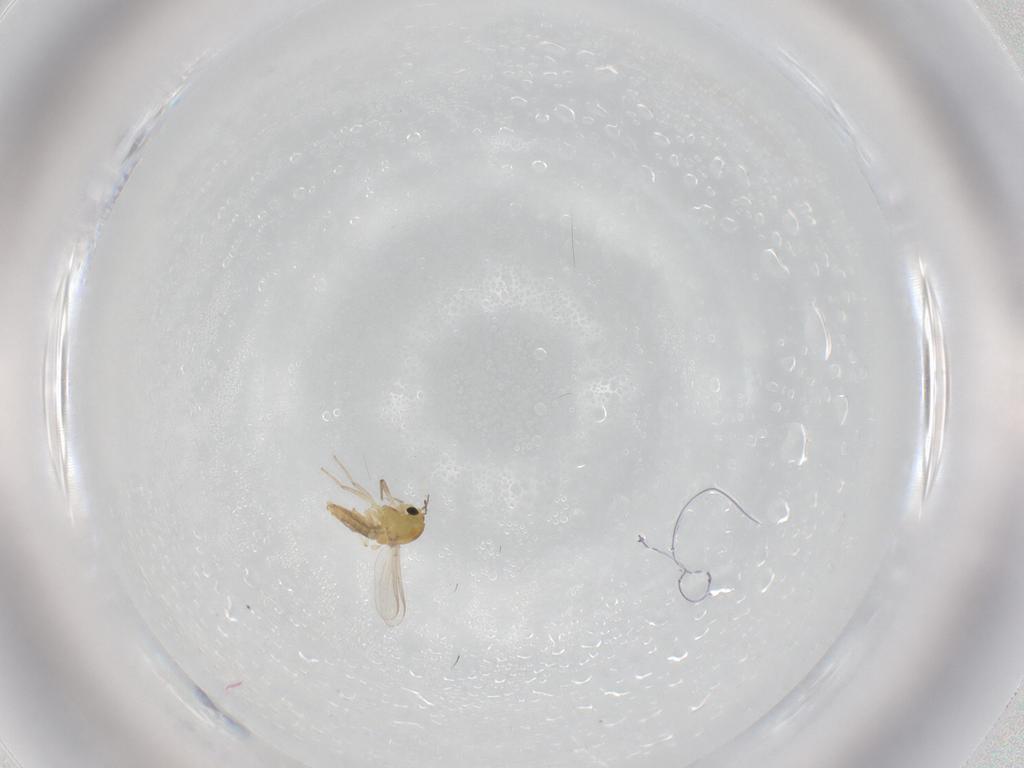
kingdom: Animalia
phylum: Arthropoda
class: Insecta
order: Diptera
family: Chironomidae
